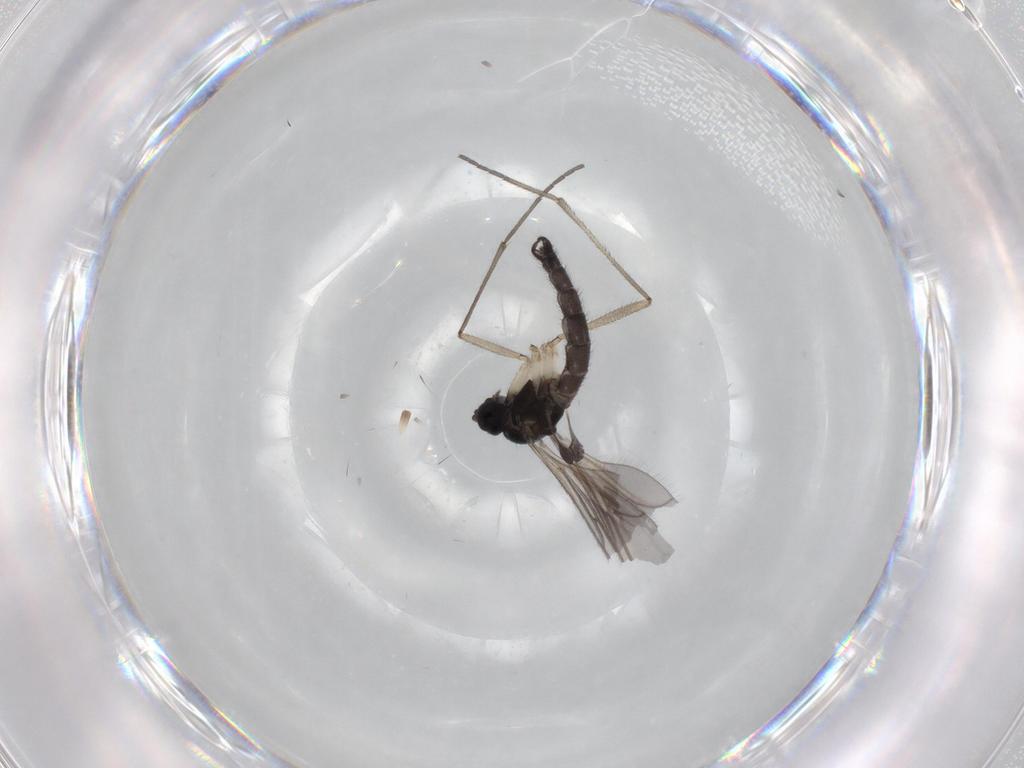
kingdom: Animalia
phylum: Arthropoda
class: Insecta
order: Diptera
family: Sciaridae
